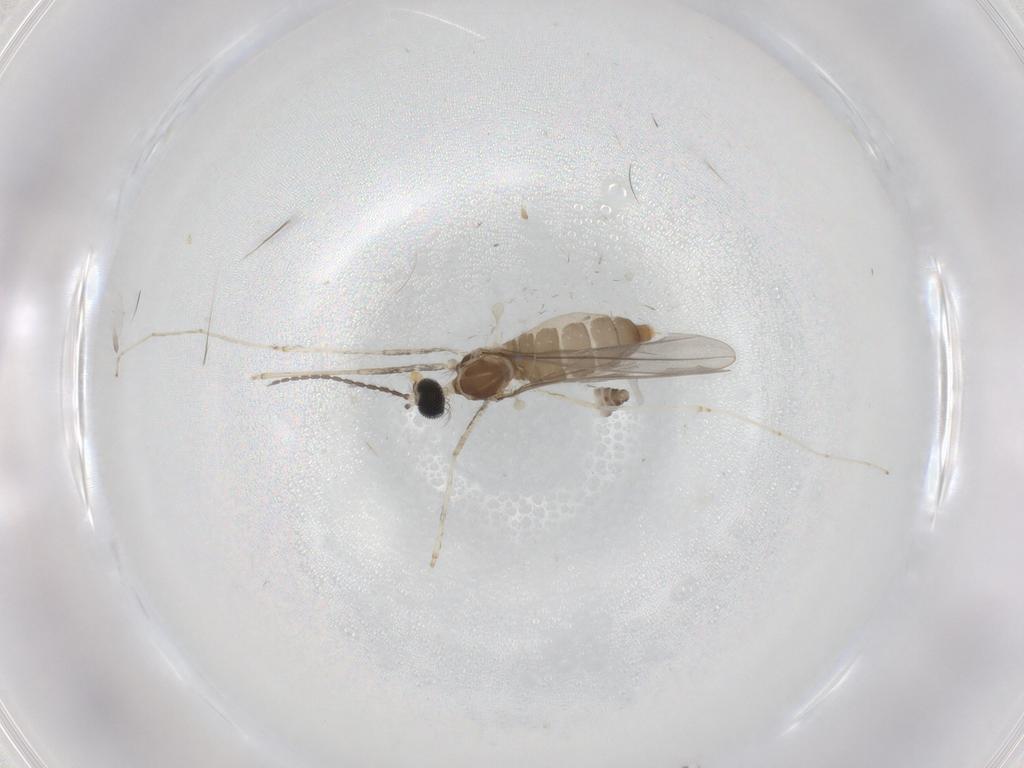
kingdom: Animalia
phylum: Arthropoda
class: Insecta
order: Diptera
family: Cecidomyiidae
